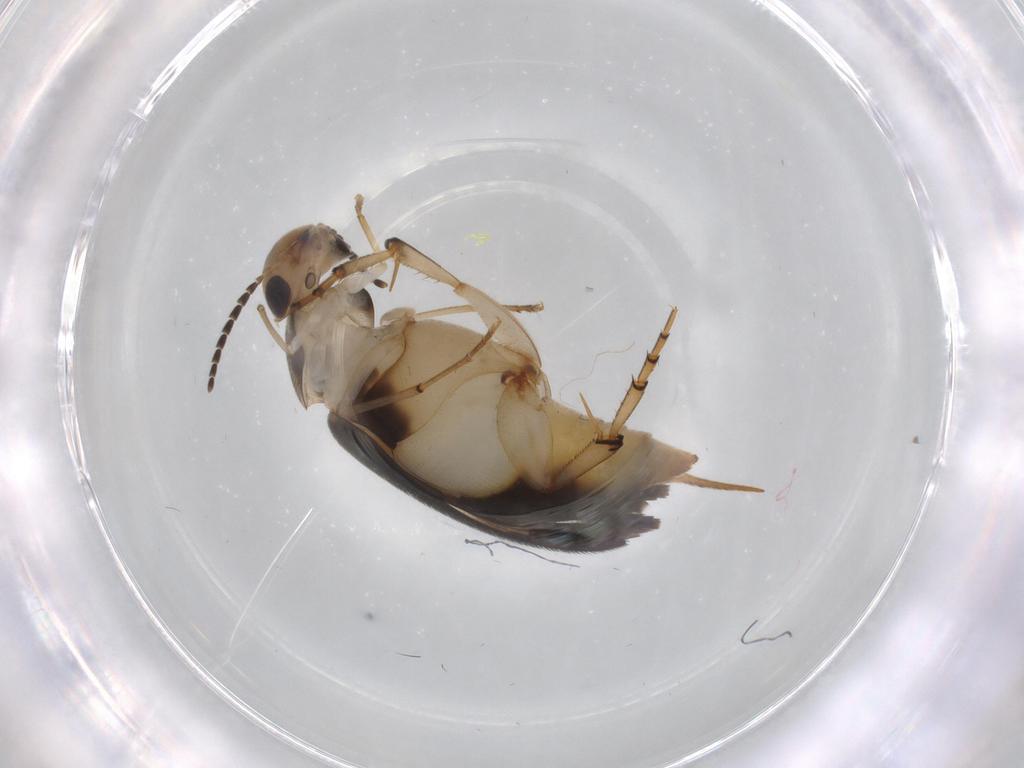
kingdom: Animalia
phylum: Arthropoda
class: Insecta
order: Coleoptera
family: Mordellidae
